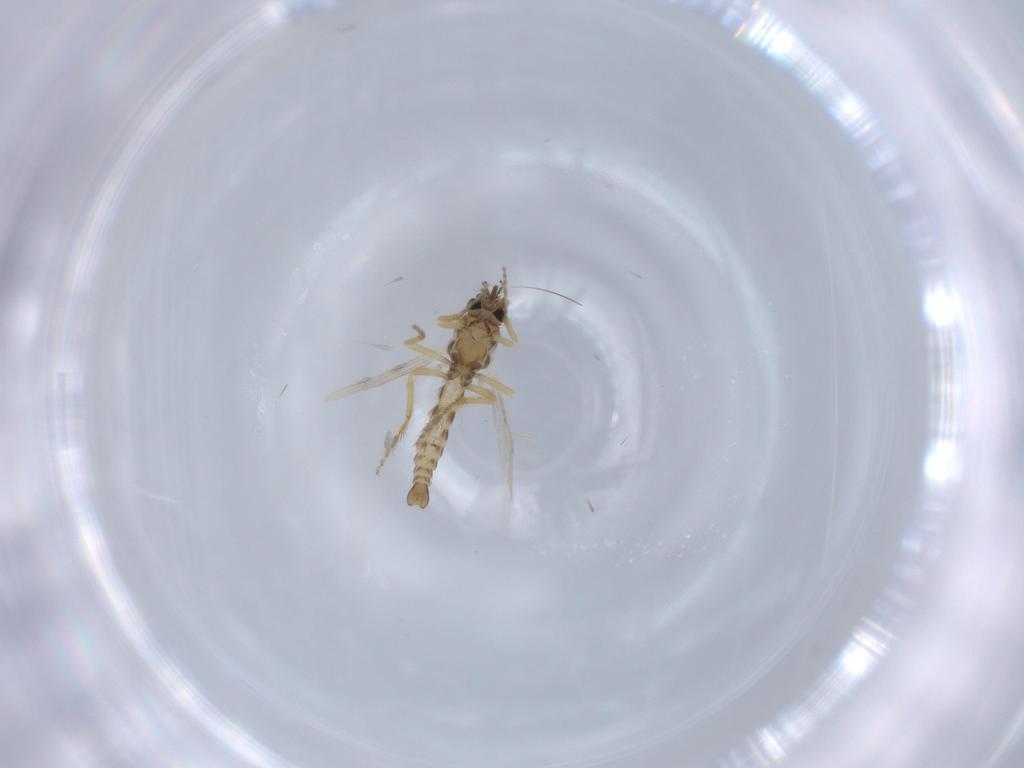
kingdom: Animalia
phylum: Arthropoda
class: Insecta
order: Diptera
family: Ceratopogonidae
